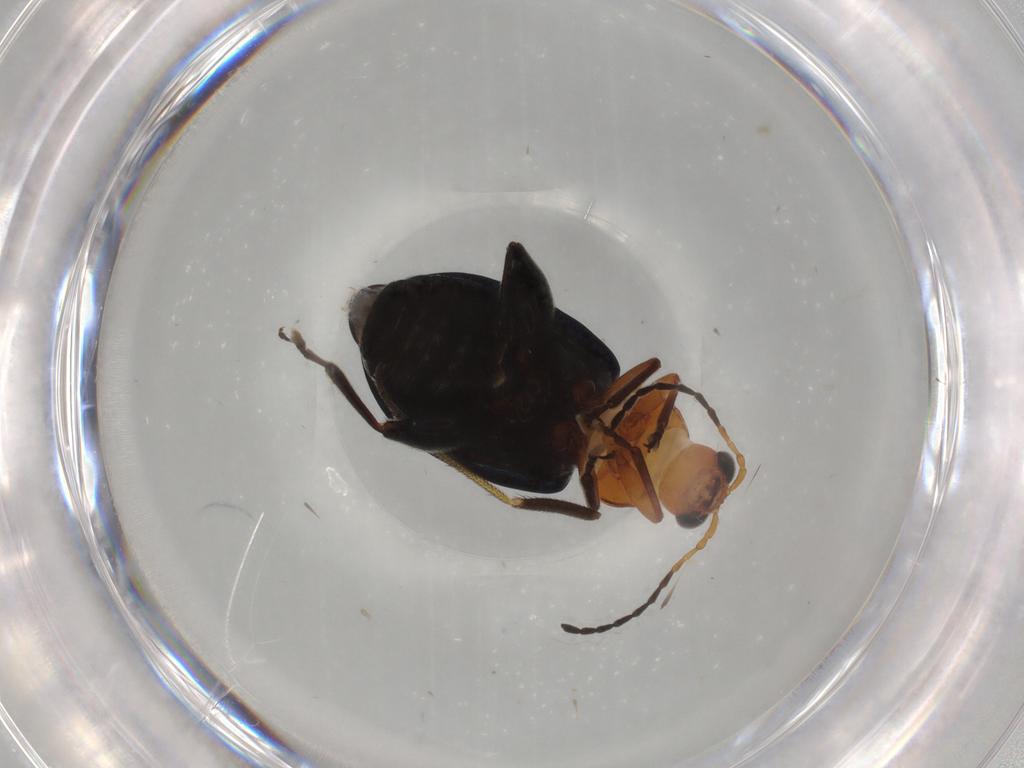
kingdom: Animalia
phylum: Arthropoda
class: Insecta
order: Coleoptera
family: Chrysomelidae
